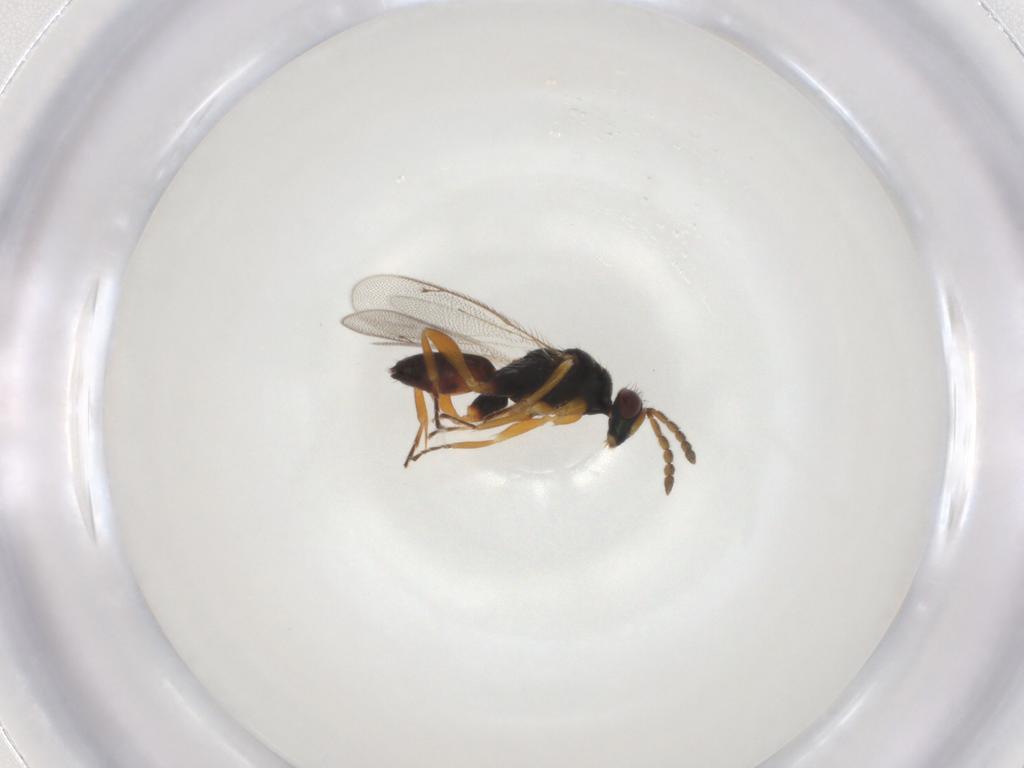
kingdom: Animalia
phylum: Arthropoda
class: Insecta
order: Hymenoptera
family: Eulophidae
